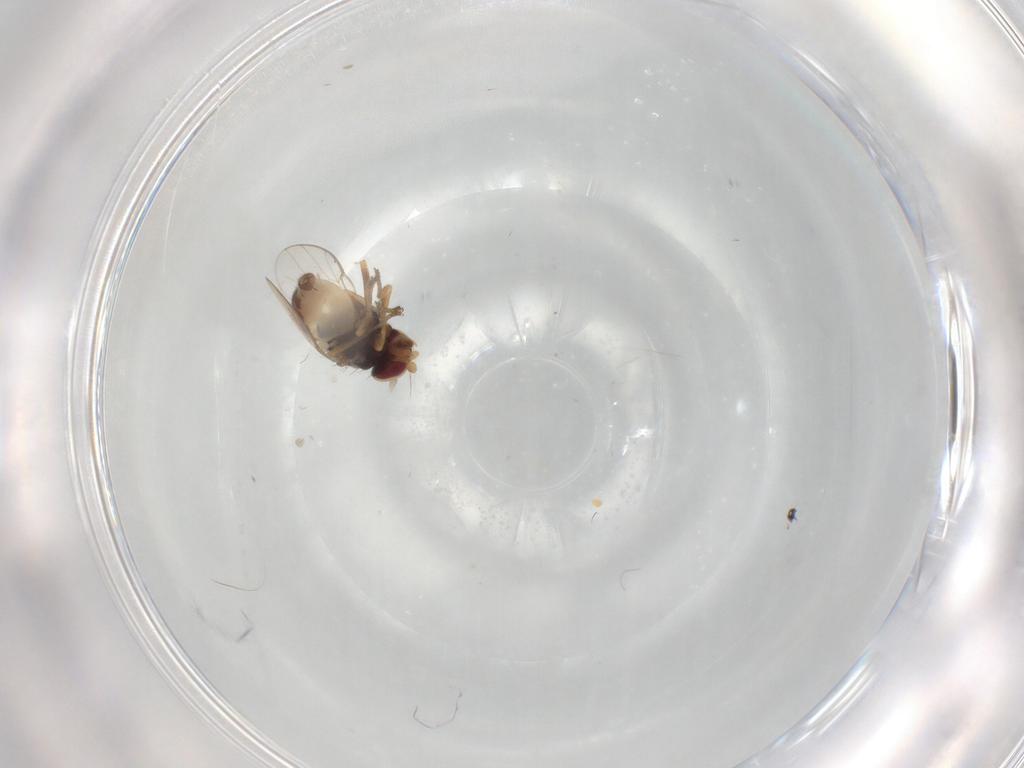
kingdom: Animalia
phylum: Arthropoda
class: Insecta
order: Diptera
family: Chloropidae
